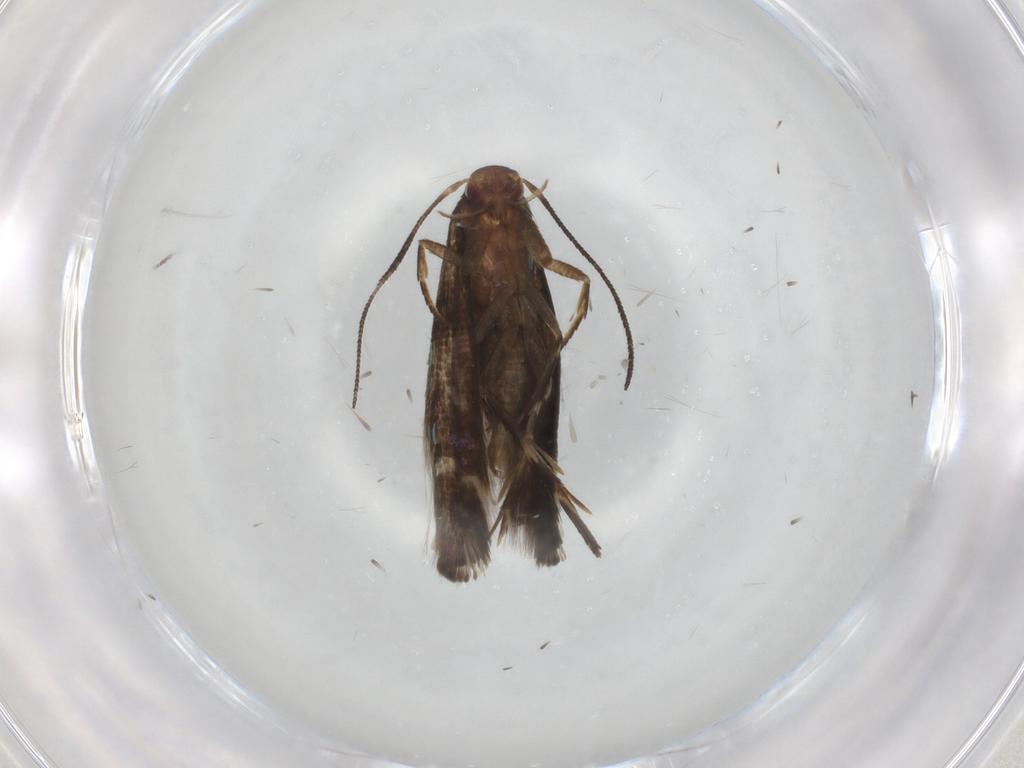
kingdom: Animalia
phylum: Arthropoda
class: Insecta
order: Lepidoptera
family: Momphidae
